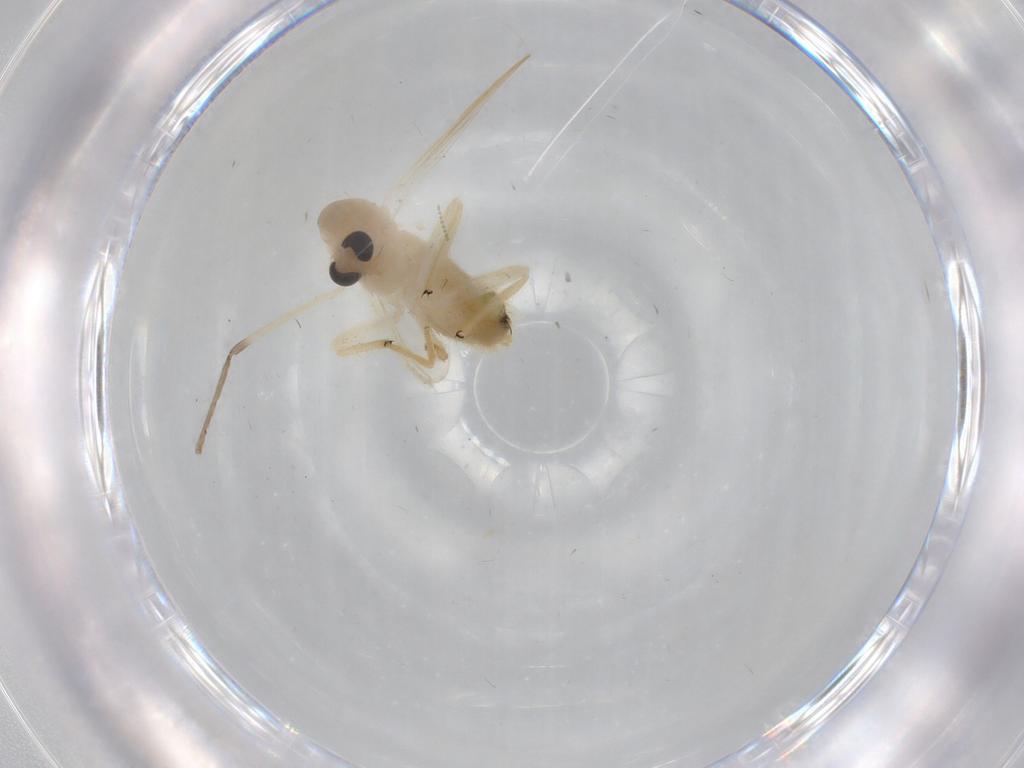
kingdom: Animalia
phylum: Arthropoda
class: Insecta
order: Diptera
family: Chironomidae
